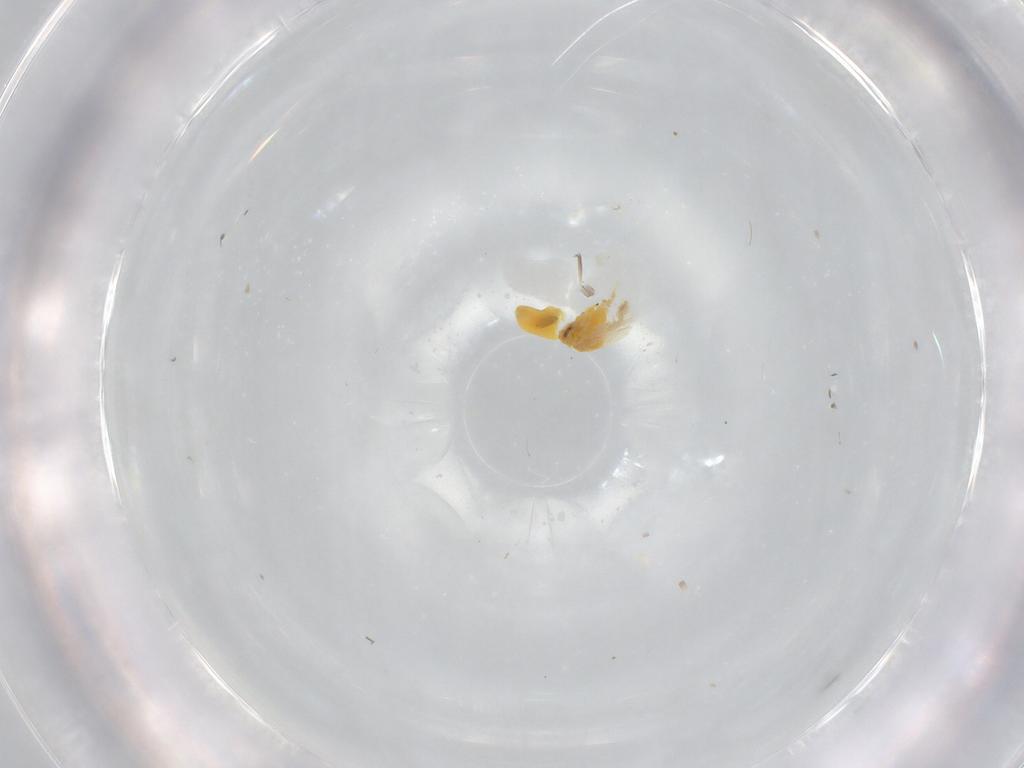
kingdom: Animalia
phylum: Arthropoda
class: Insecta
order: Hemiptera
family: Aleyrodidae
